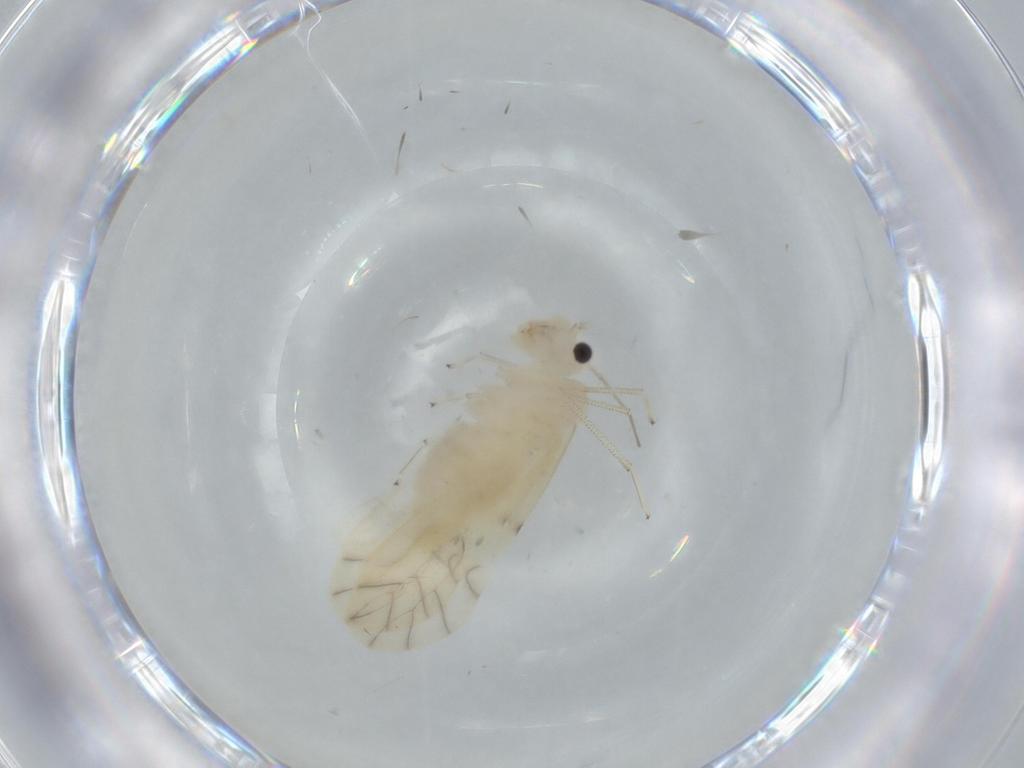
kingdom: Animalia
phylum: Arthropoda
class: Insecta
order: Psocodea
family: Caeciliusidae
